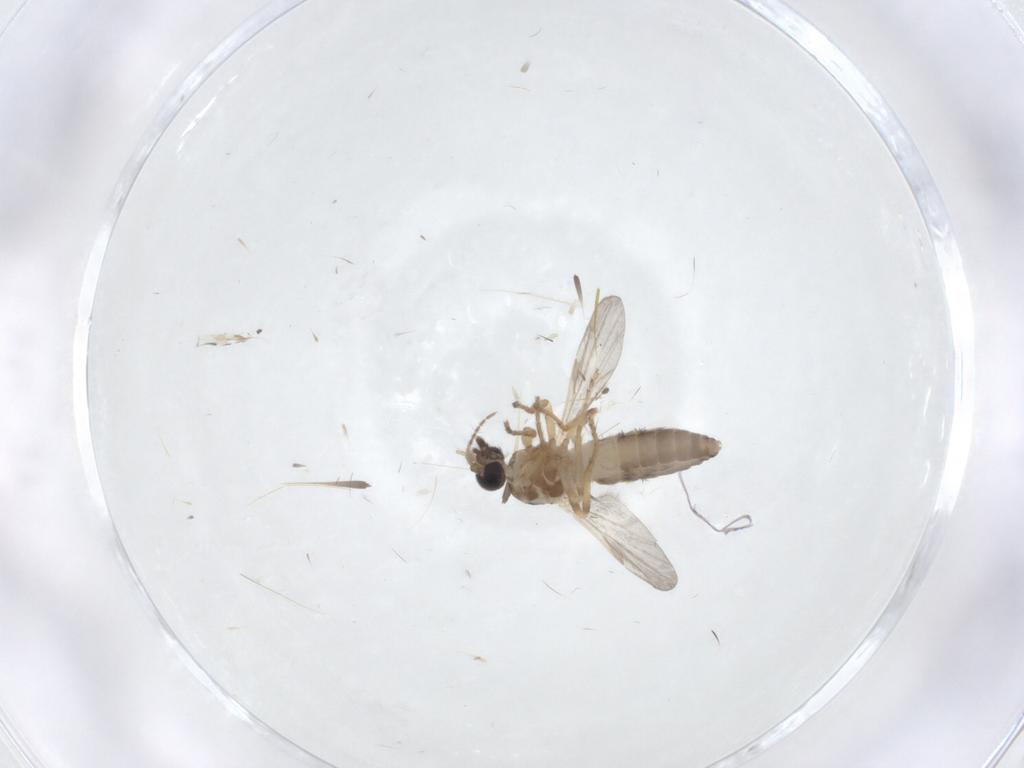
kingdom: Animalia
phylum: Arthropoda
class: Insecta
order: Diptera
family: Ceratopogonidae
